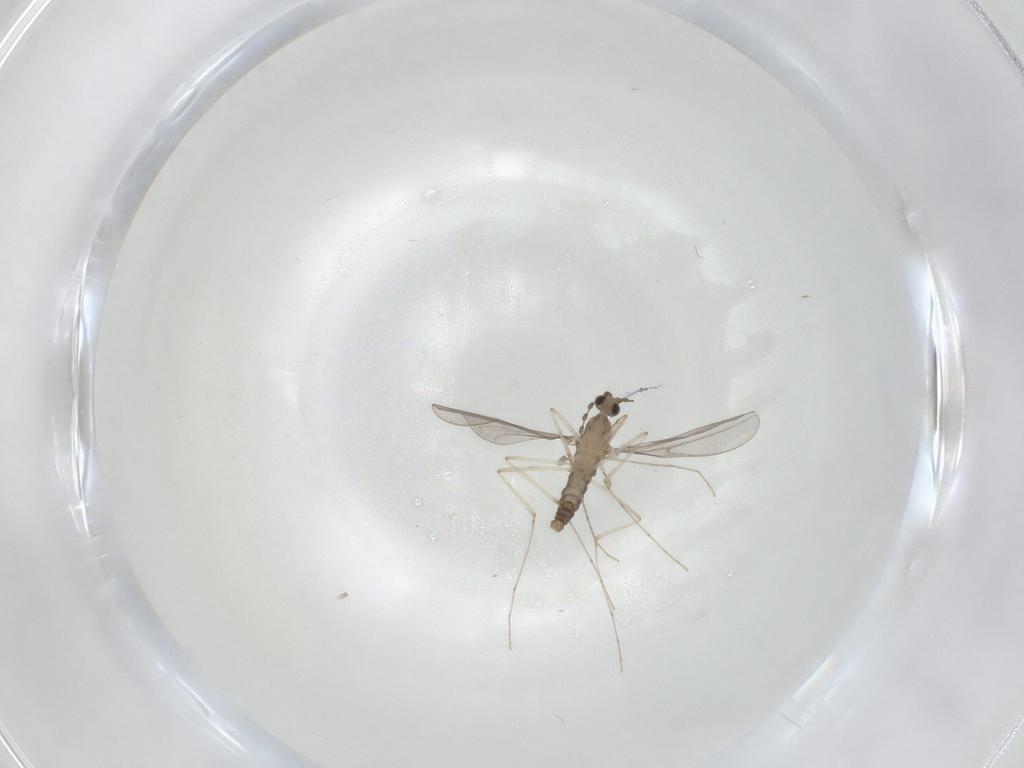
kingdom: Animalia
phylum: Arthropoda
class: Insecta
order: Diptera
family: Cecidomyiidae
